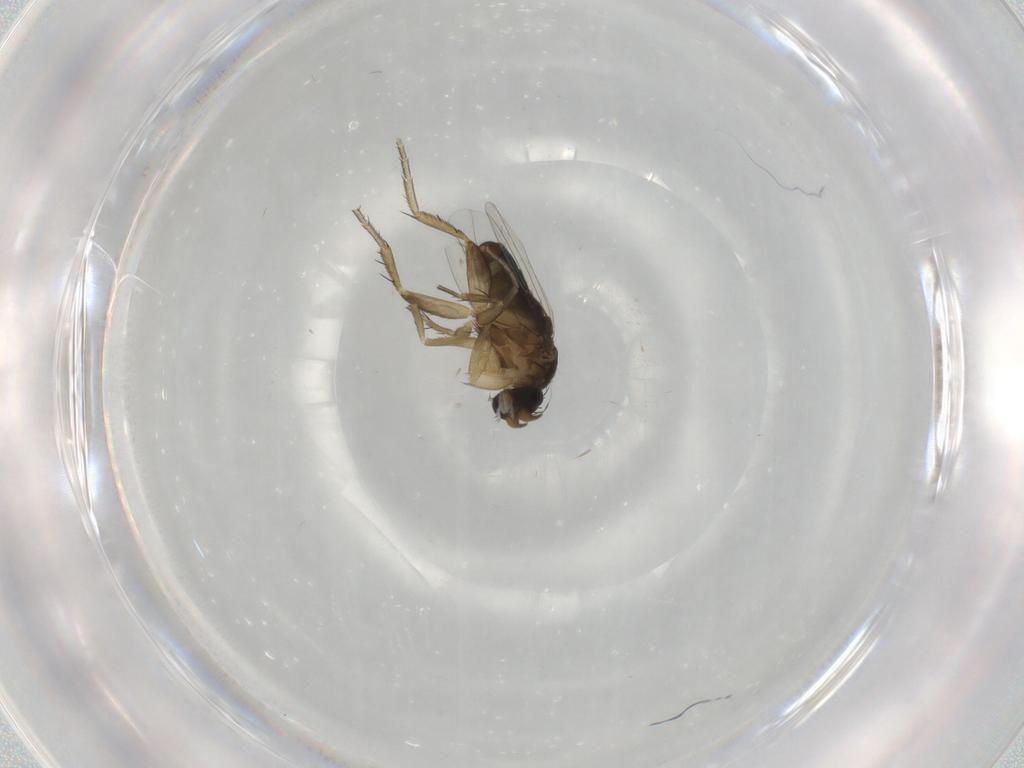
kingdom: Animalia
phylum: Arthropoda
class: Insecta
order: Diptera
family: Phoridae
